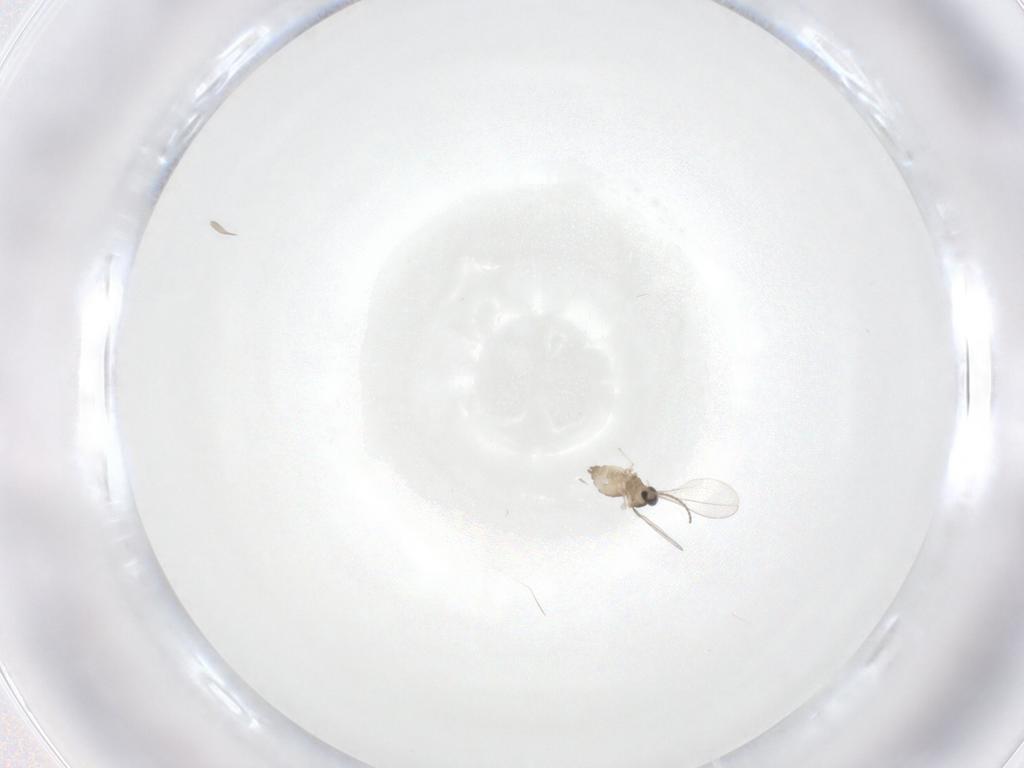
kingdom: Animalia
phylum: Arthropoda
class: Insecta
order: Diptera
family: Cecidomyiidae
